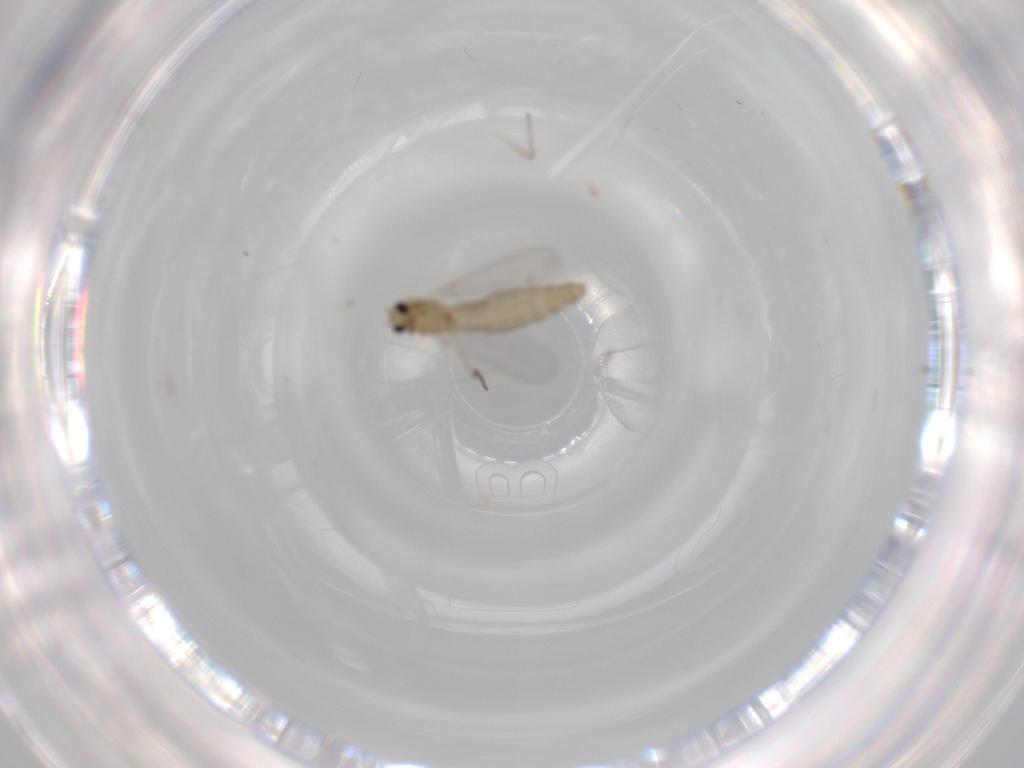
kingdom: Animalia
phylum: Arthropoda
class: Insecta
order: Diptera
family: Chironomidae
